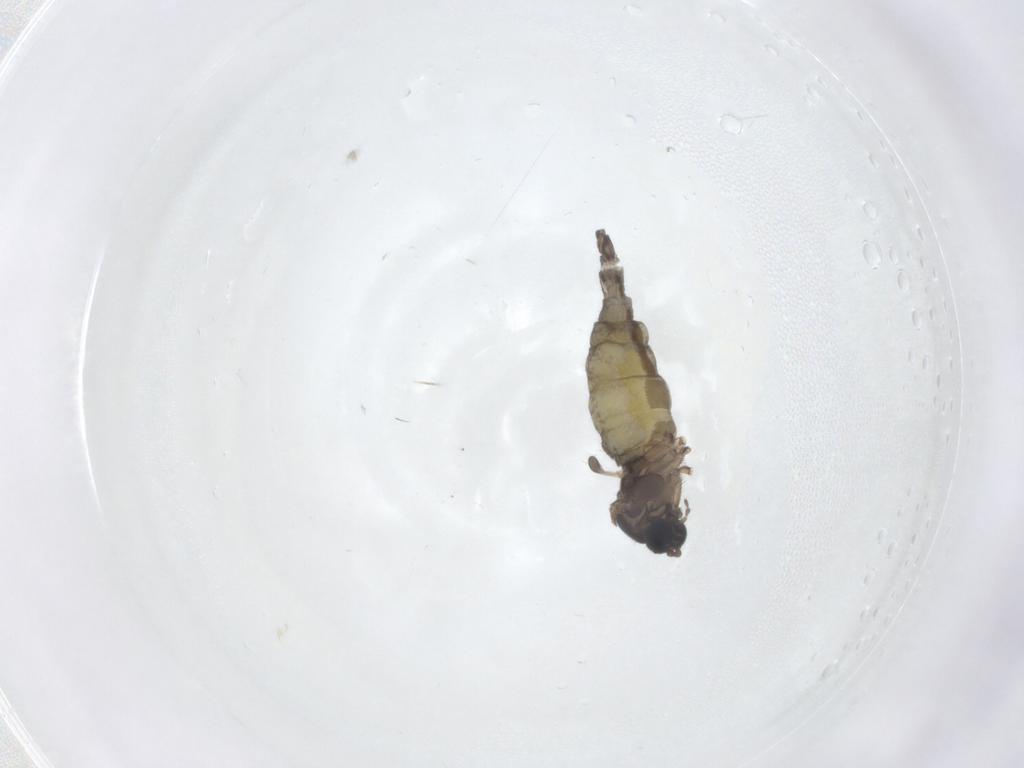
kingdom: Animalia
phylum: Arthropoda
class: Insecta
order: Diptera
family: Sciaridae
